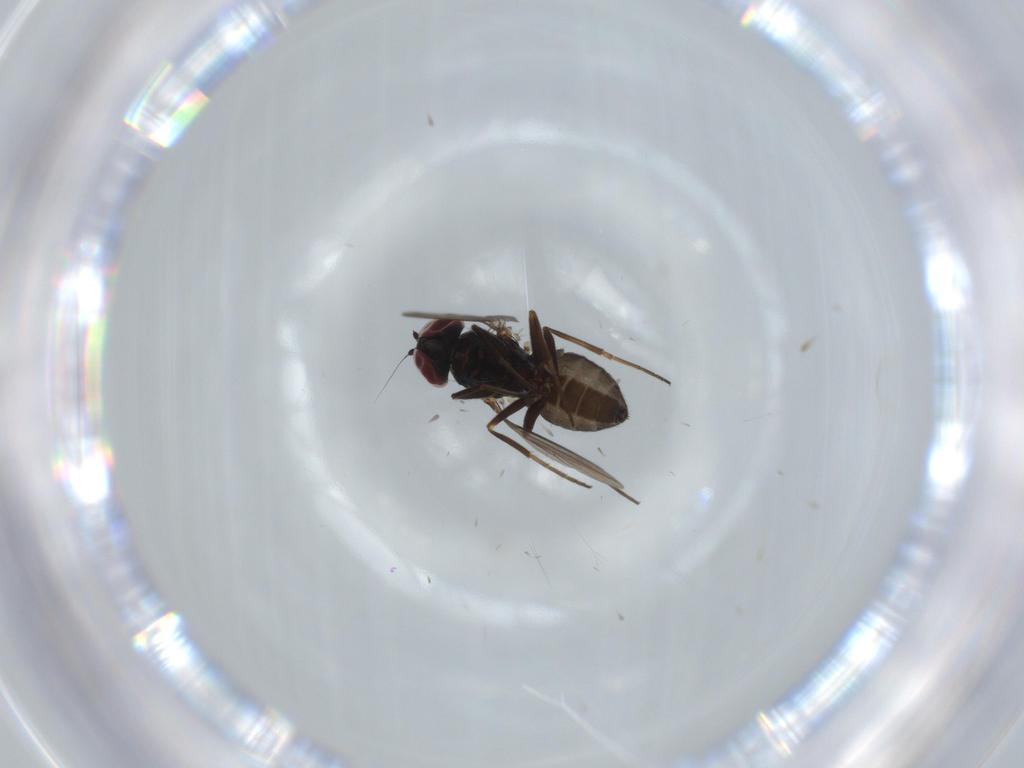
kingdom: Animalia
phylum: Arthropoda
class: Insecta
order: Diptera
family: Dolichopodidae
